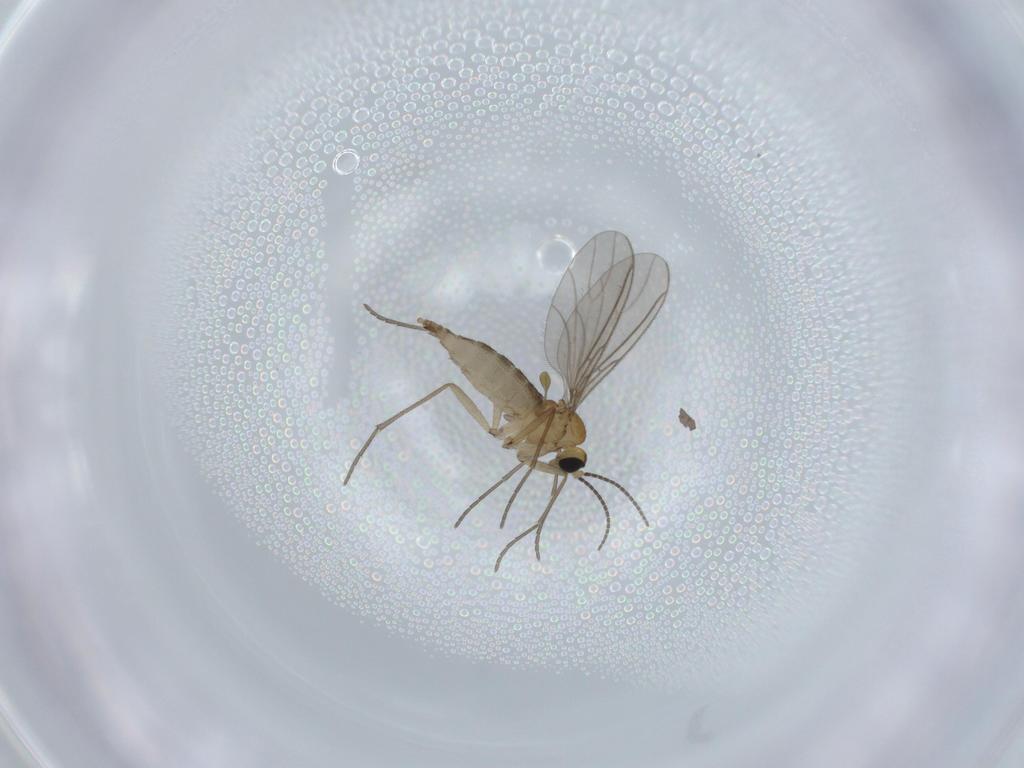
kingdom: Animalia
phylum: Arthropoda
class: Insecta
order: Diptera
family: Sciaridae
